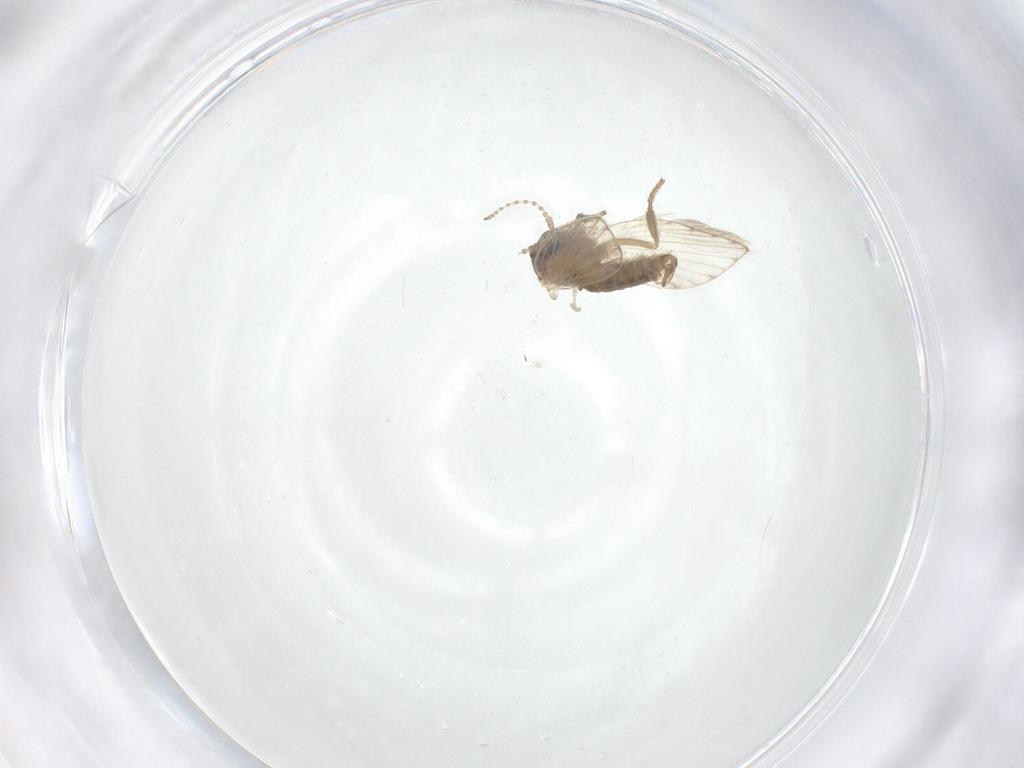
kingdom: Animalia
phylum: Arthropoda
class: Insecta
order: Diptera
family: Psychodidae
